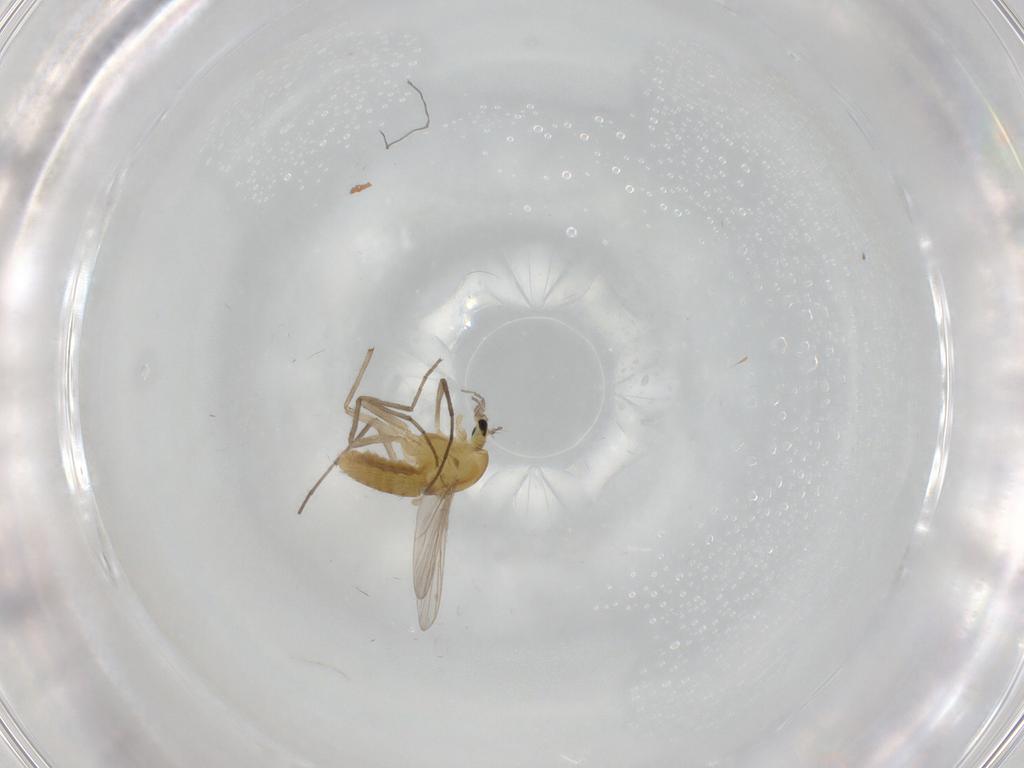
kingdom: Animalia
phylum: Arthropoda
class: Insecta
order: Diptera
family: Chironomidae
